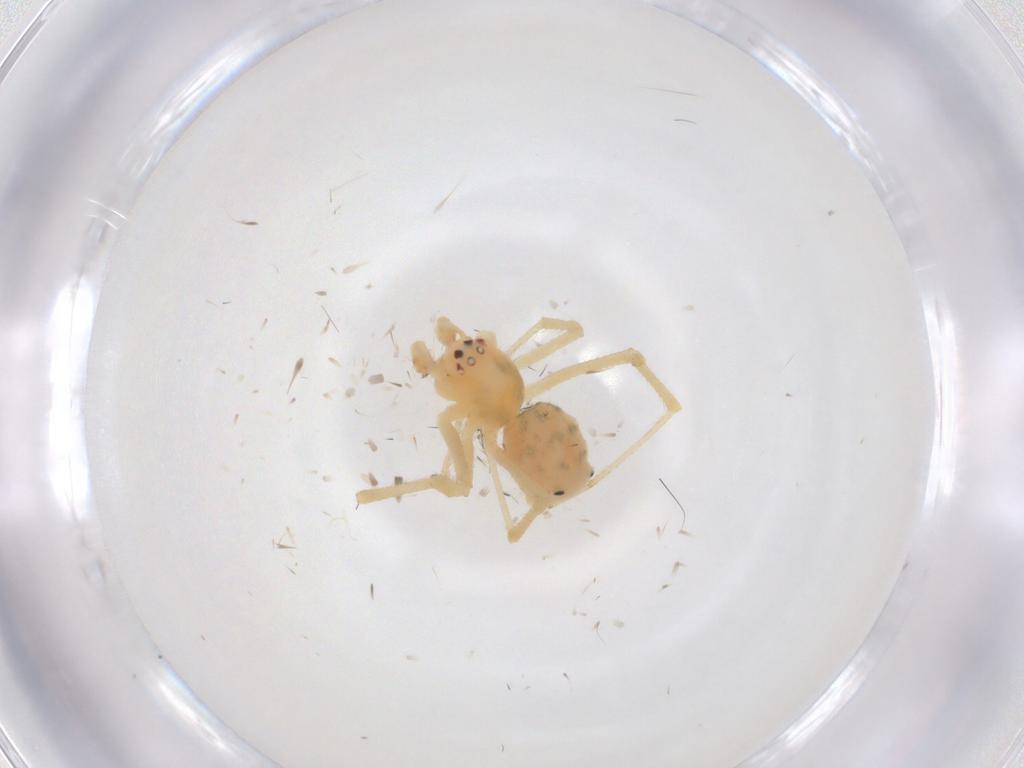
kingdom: Animalia
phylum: Arthropoda
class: Arachnida
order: Araneae
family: Theridiidae
